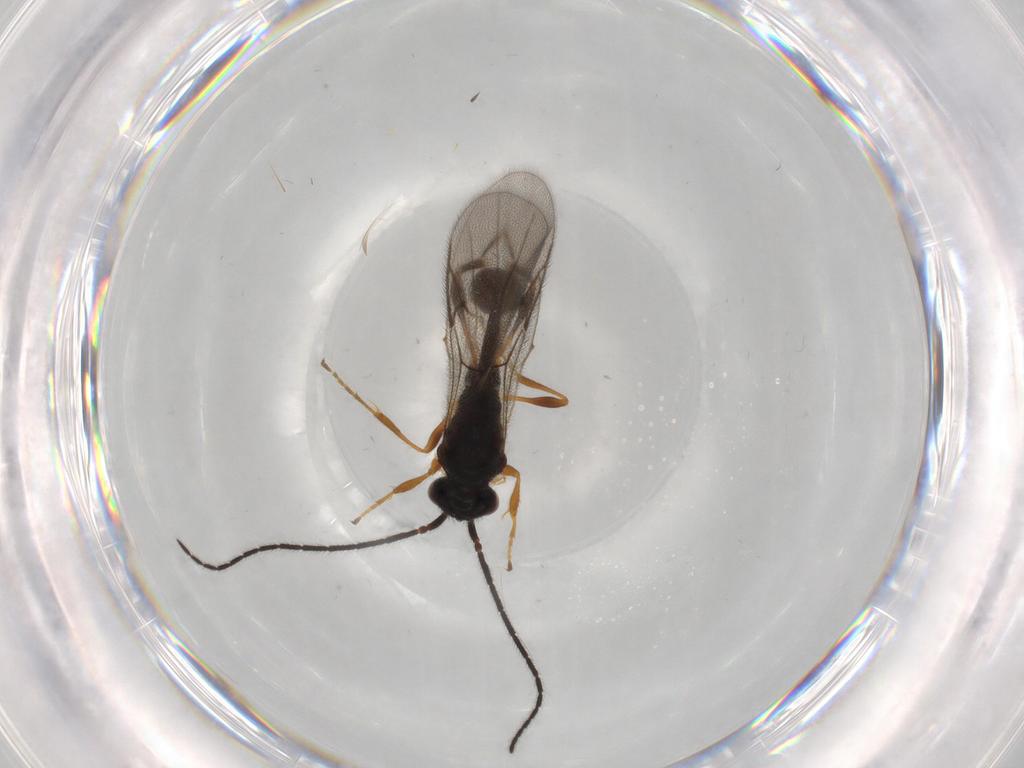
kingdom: Animalia
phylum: Arthropoda
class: Insecta
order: Hymenoptera
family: Diapriidae
